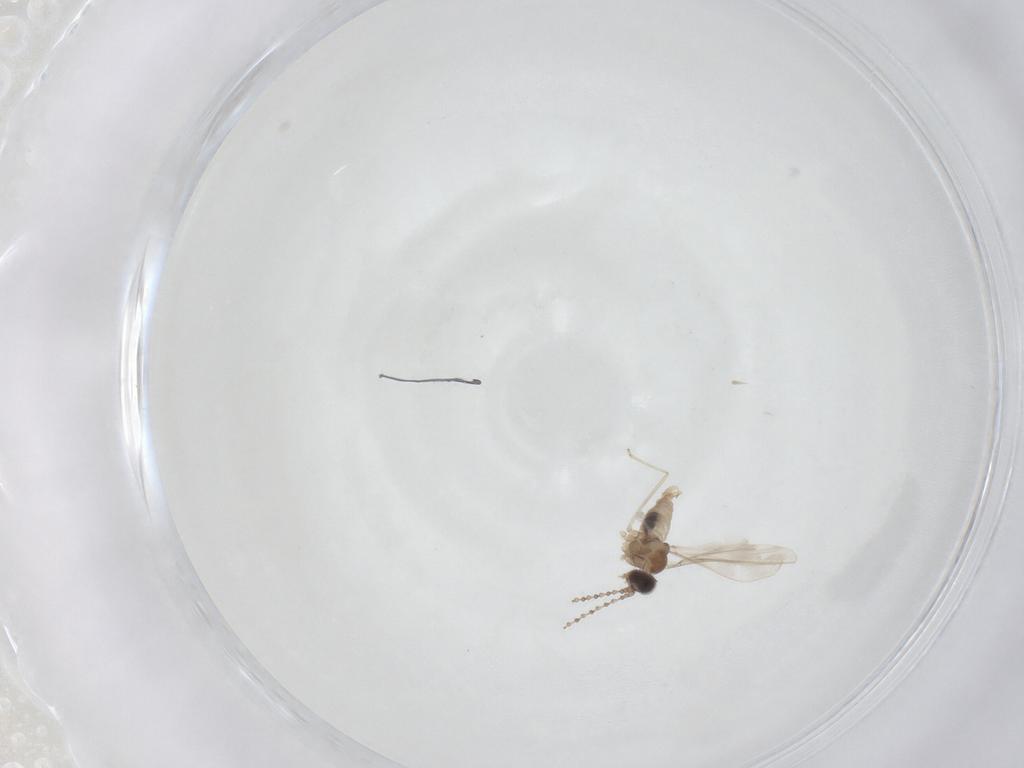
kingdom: Animalia
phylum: Arthropoda
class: Insecta
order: Diptera
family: Cecidomyiidae
